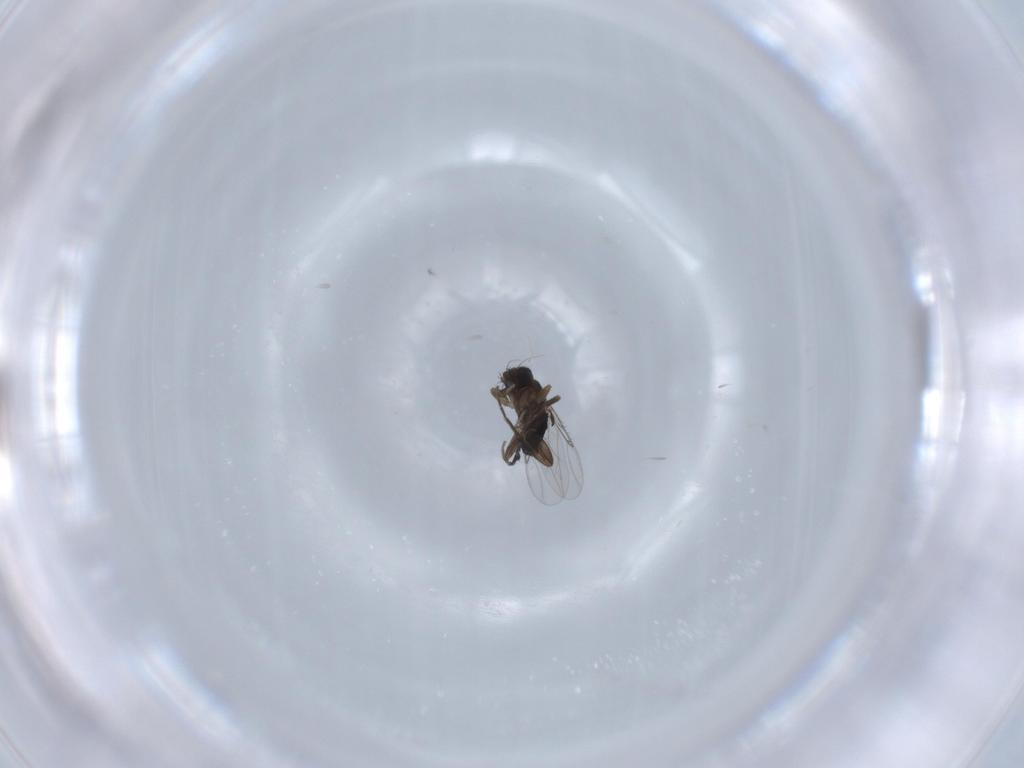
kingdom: Animalia
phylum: Arthropoda
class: Insecta
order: Diptera
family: Phoridae
